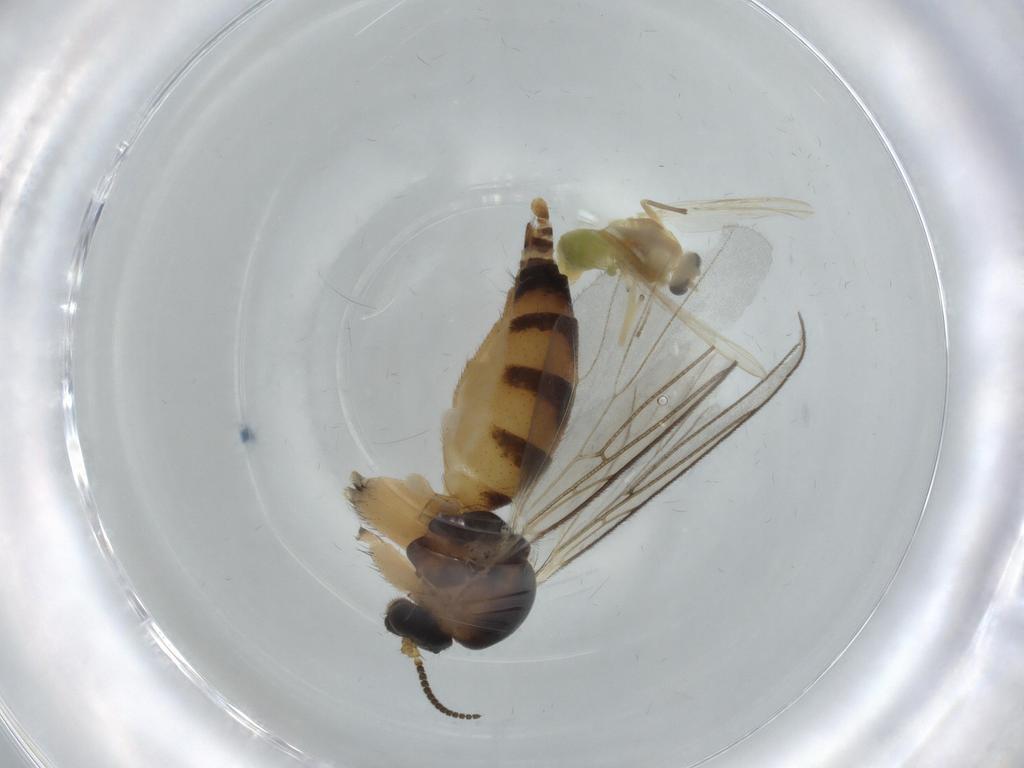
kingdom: Animalia
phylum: Arthropoda
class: Insecta
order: Diptera
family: Chironomidae
